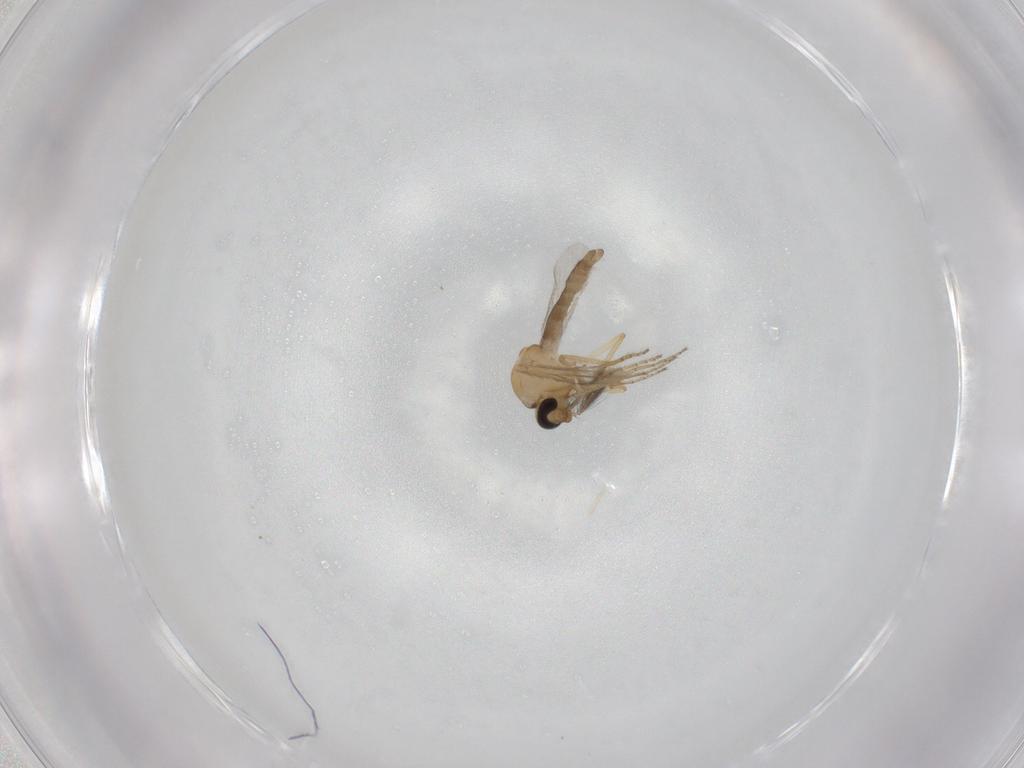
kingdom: Animalia
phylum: Arthropoda
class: Insecta
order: Diptera
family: Ceratopogonidae
